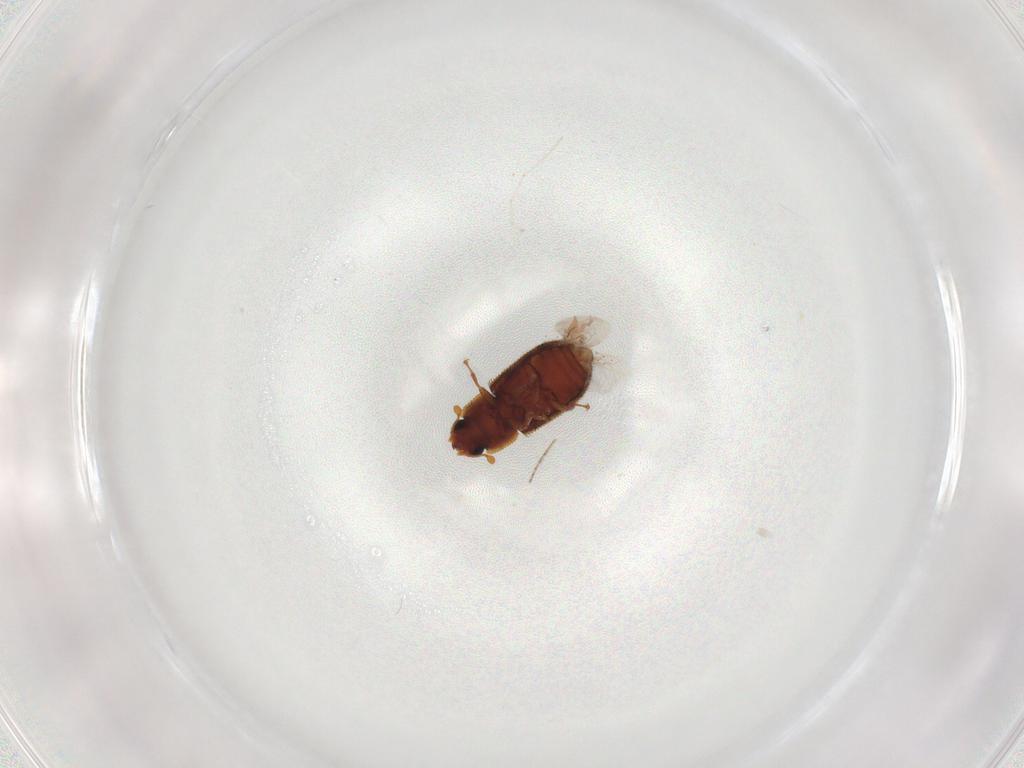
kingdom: Animalia
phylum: Arthropoda
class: Insecta
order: Coleoptera
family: Zopheridae
